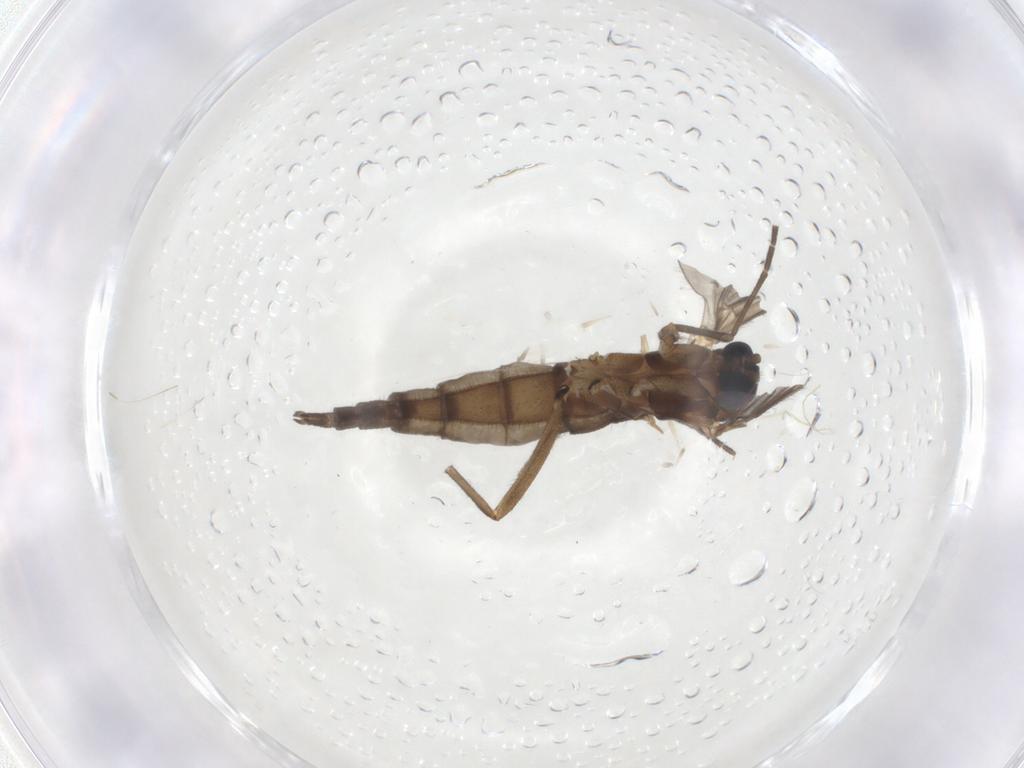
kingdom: Animalia
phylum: Arthropoda
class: Insecta
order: Diptera
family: Sciaridae
